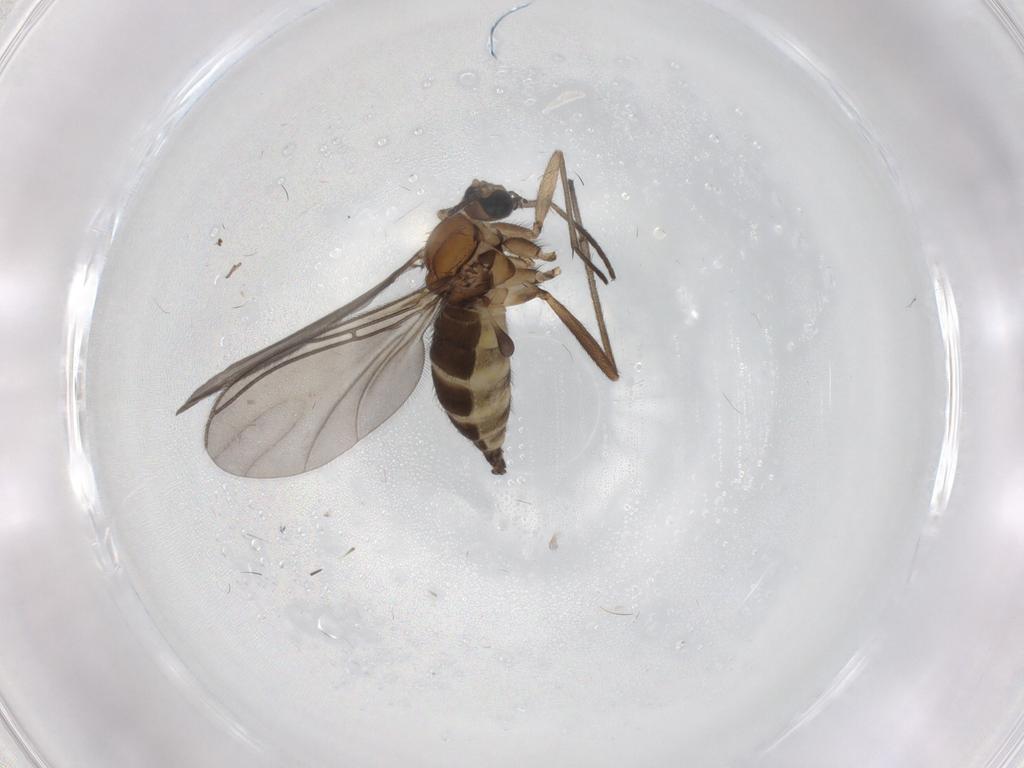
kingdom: Animalia
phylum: Arthropoda
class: Insecta
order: Diptera
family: Sciaridae
